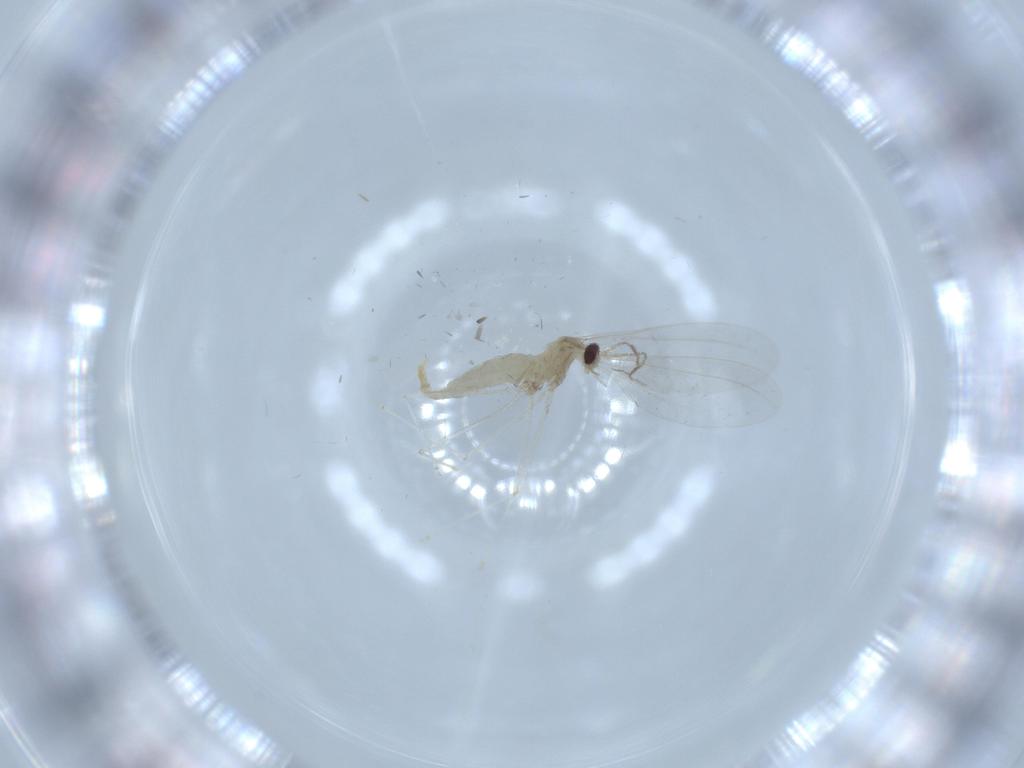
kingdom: Animalia
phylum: Arthropoda
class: Insecta
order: Diptera
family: Cecidomyiidae
